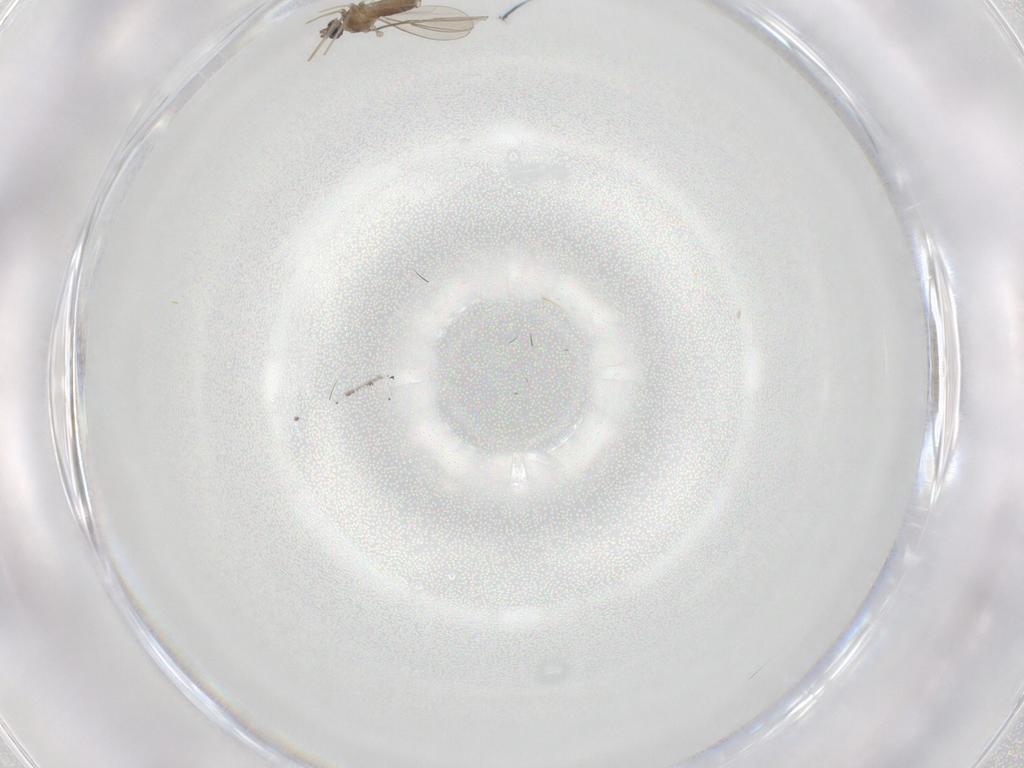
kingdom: Animalia
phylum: Arthropoda
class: Insecta
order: Diptera
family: Cecidomyiidae
